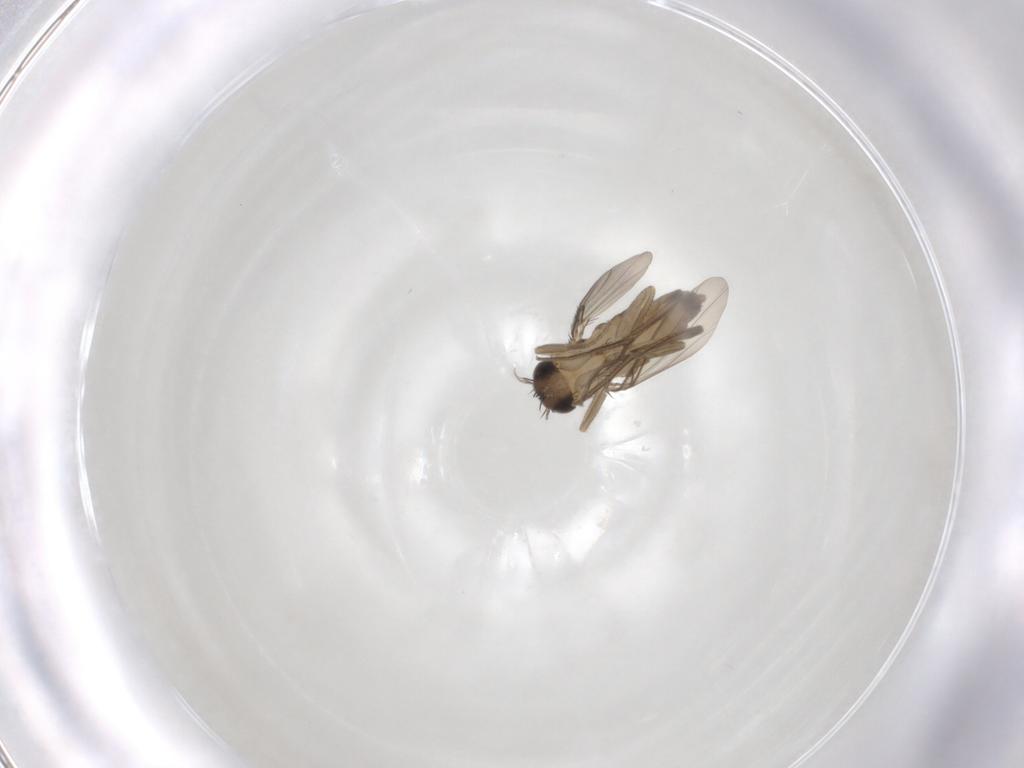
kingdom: Animalia
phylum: Arthropoda
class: Insecta
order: Diptera
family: Phoridae
